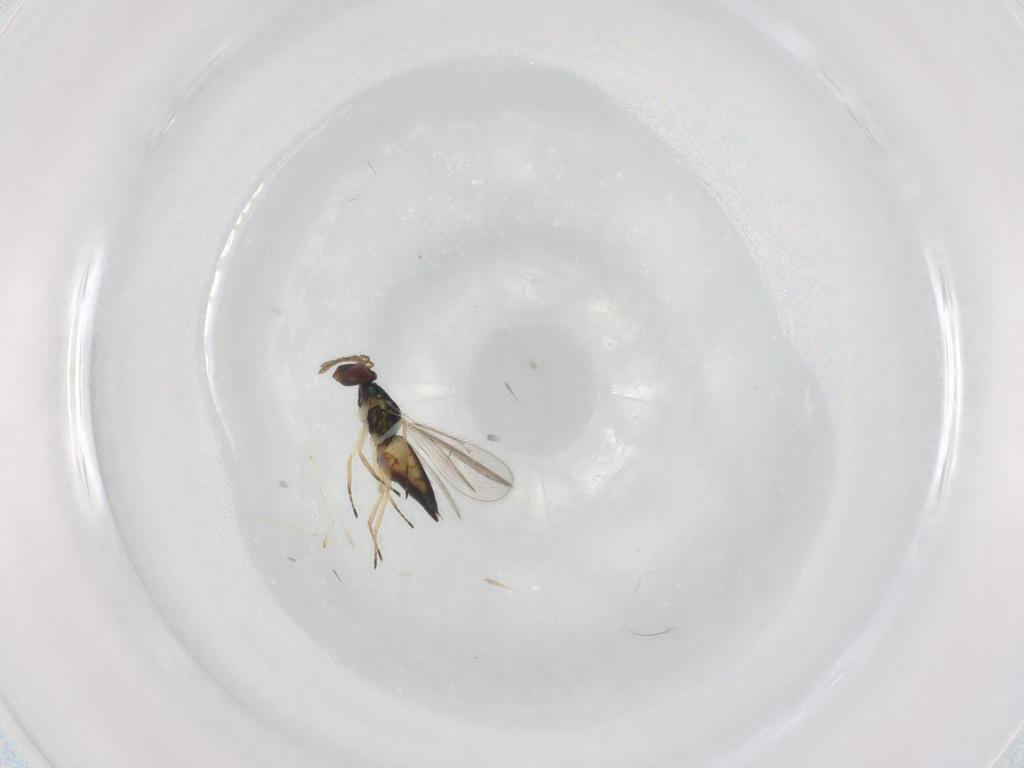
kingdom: Animalia
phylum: Arthropoda
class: Insecta
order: Hymenoptera
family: Eulophidae
